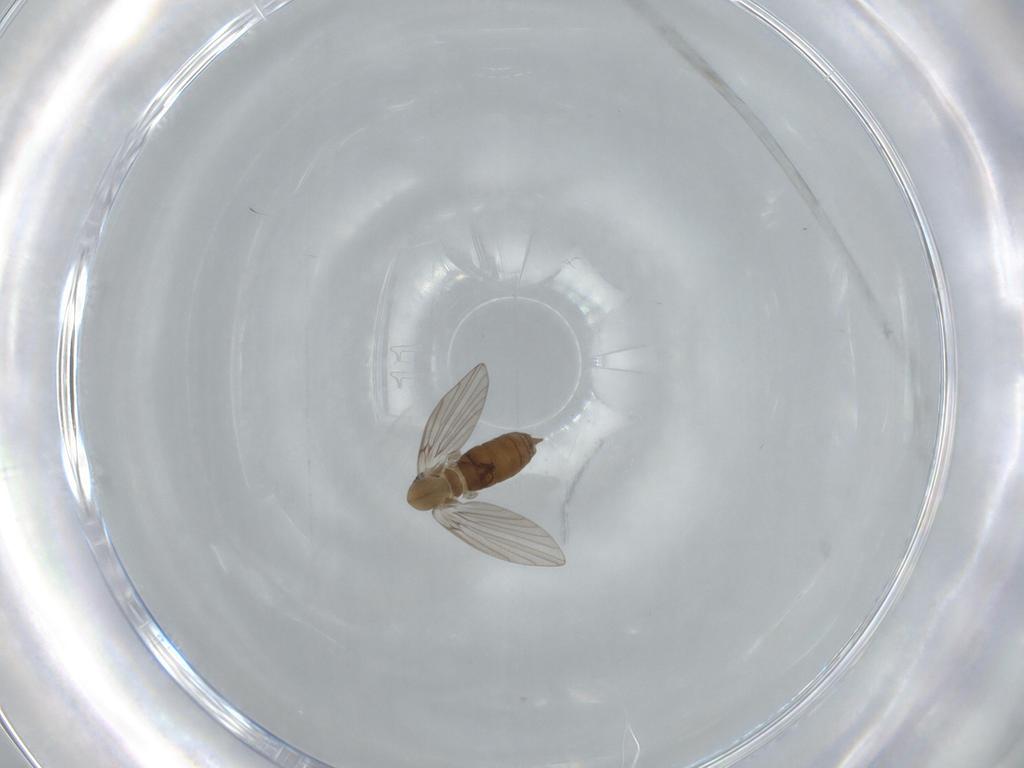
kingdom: Animalia
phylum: Arthropoda
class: Insecta
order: Diptera
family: Psychodidae
